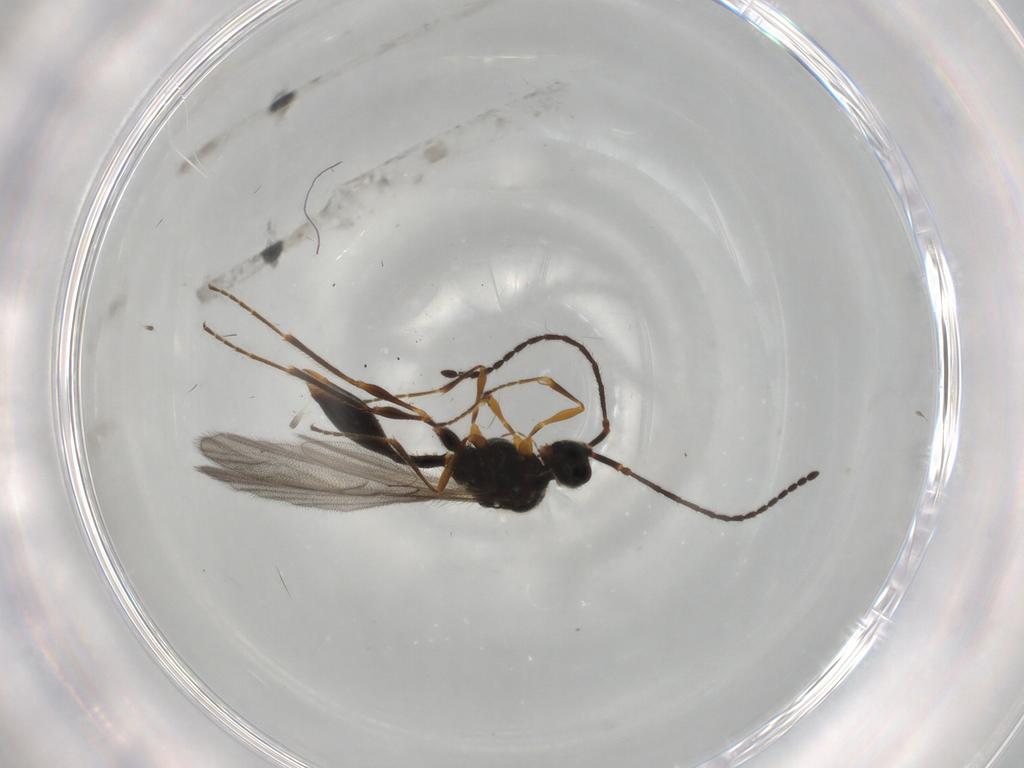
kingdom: Animalia
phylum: Arthropoda
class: Insecta
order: Hymenoptera
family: Diapriidae
